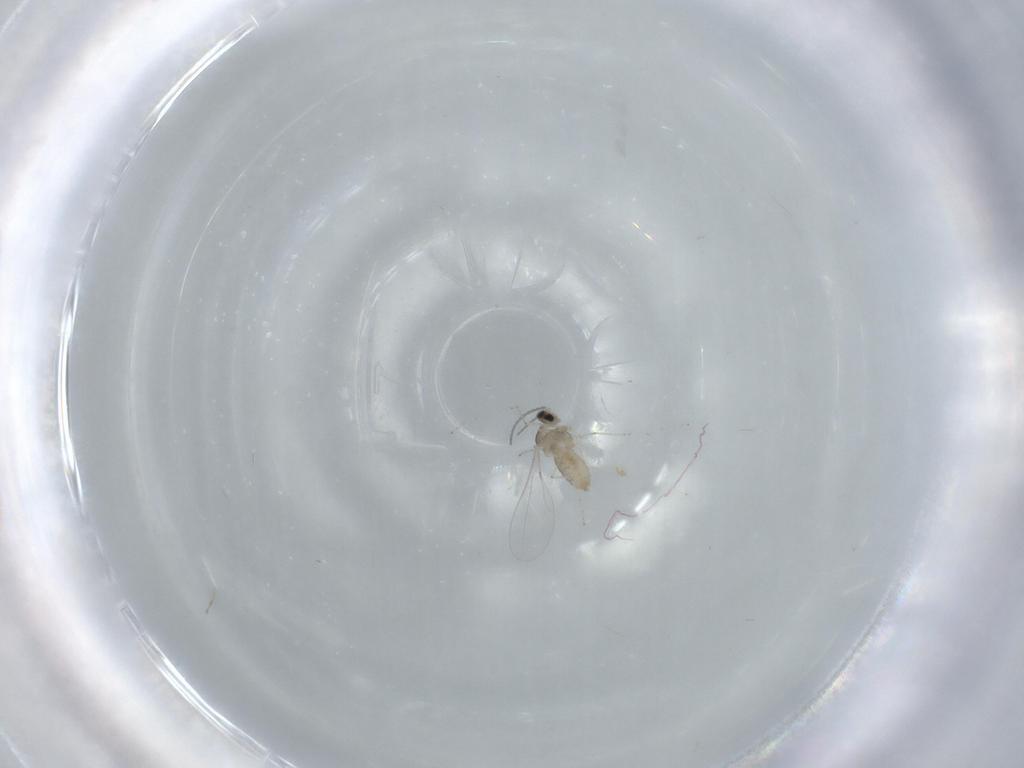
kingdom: Animalia
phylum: Arthropoda
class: Insecta
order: Diptera
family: Cecidomyiidae
